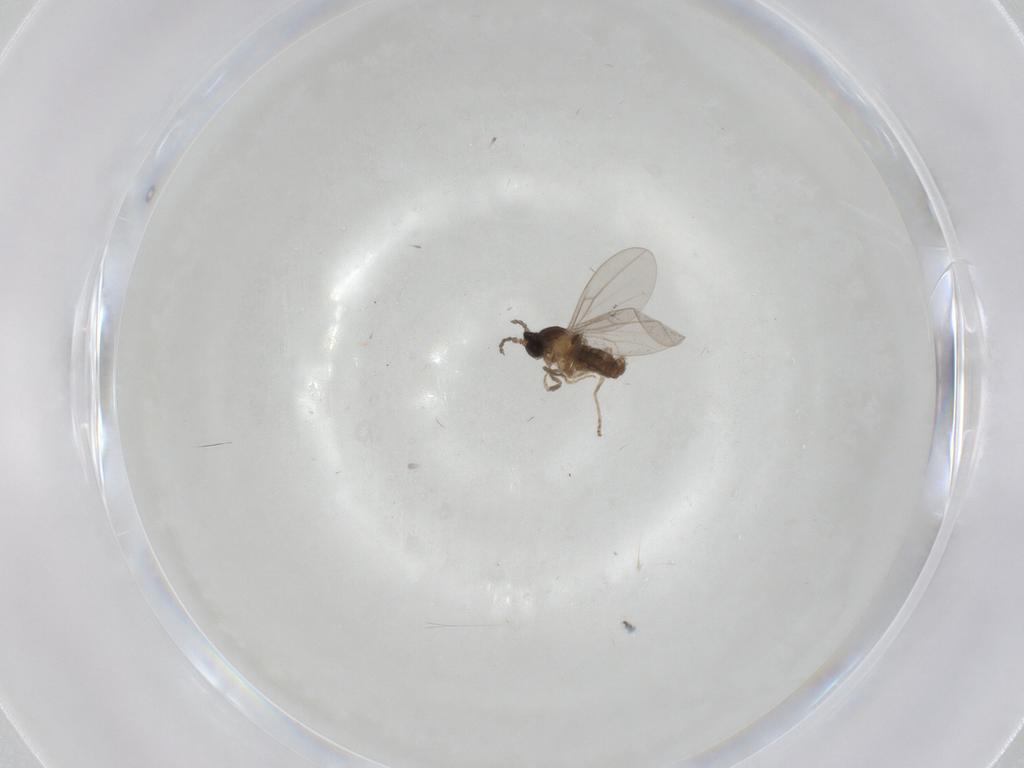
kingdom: Animalia
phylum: Arthropoda
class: Insecta
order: Diptera
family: Cecidomyiidae
